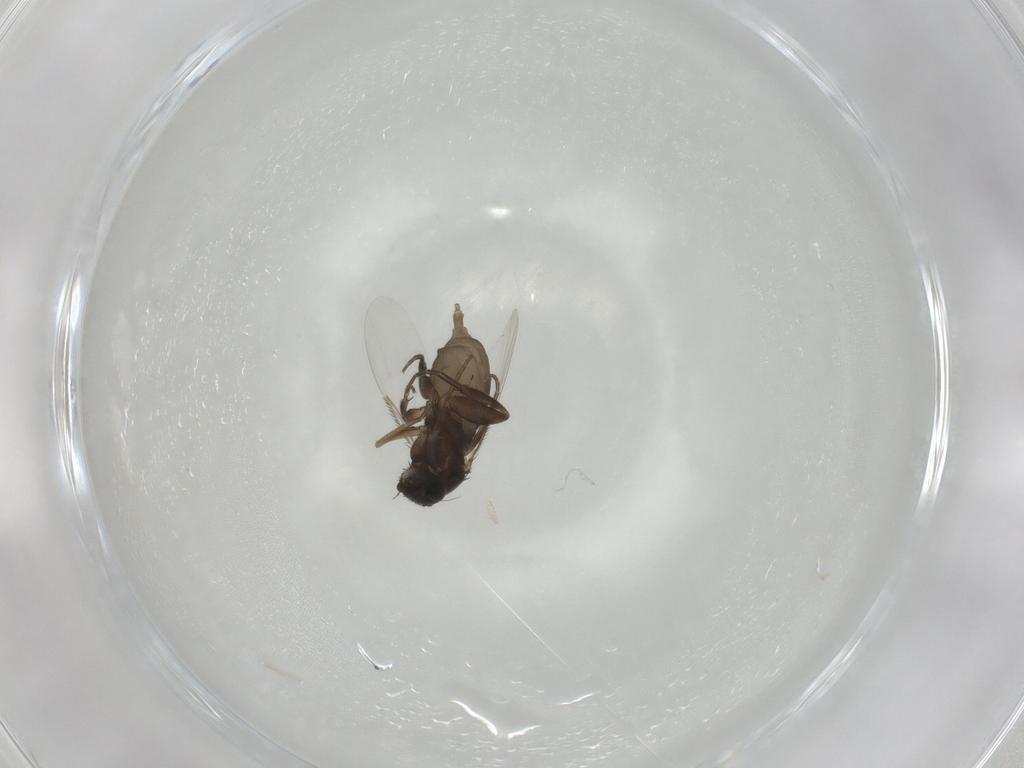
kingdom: Animalia
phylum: Arthropoda
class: Insecta
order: Diptera
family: Phoridae
